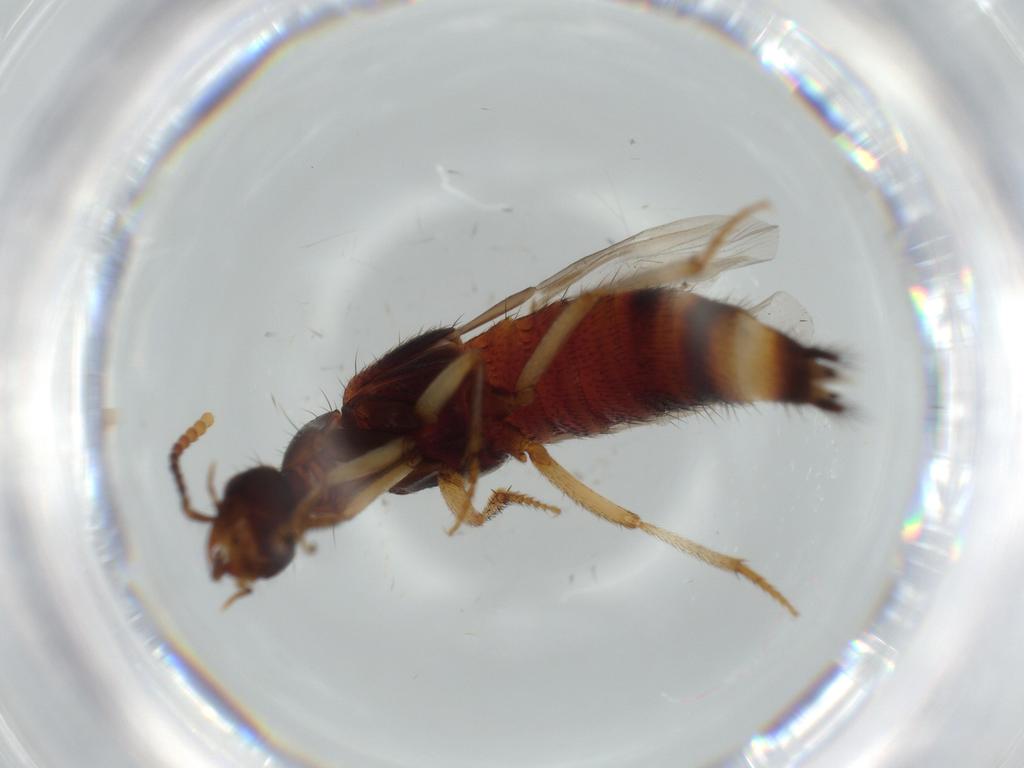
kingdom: Animalia
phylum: Arthropoda
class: Insecta
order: Coleoptera
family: Staphylinidae
